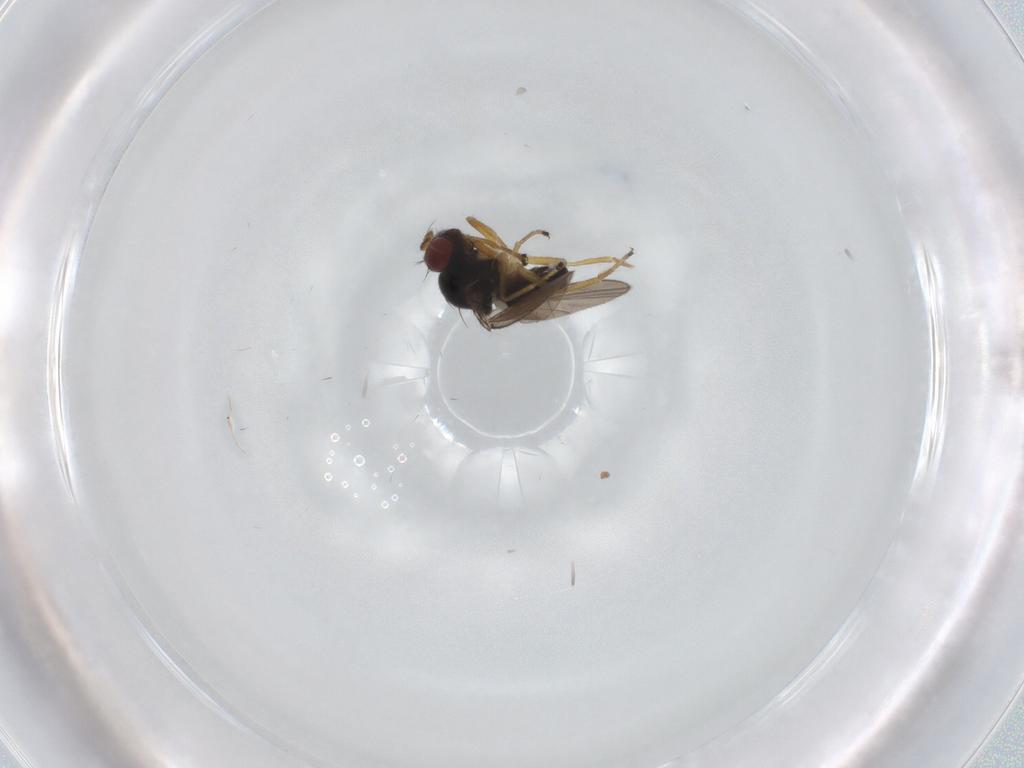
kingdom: Animalia
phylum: Arthropoda
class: Insecta
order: Diptera
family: Ephydridae
